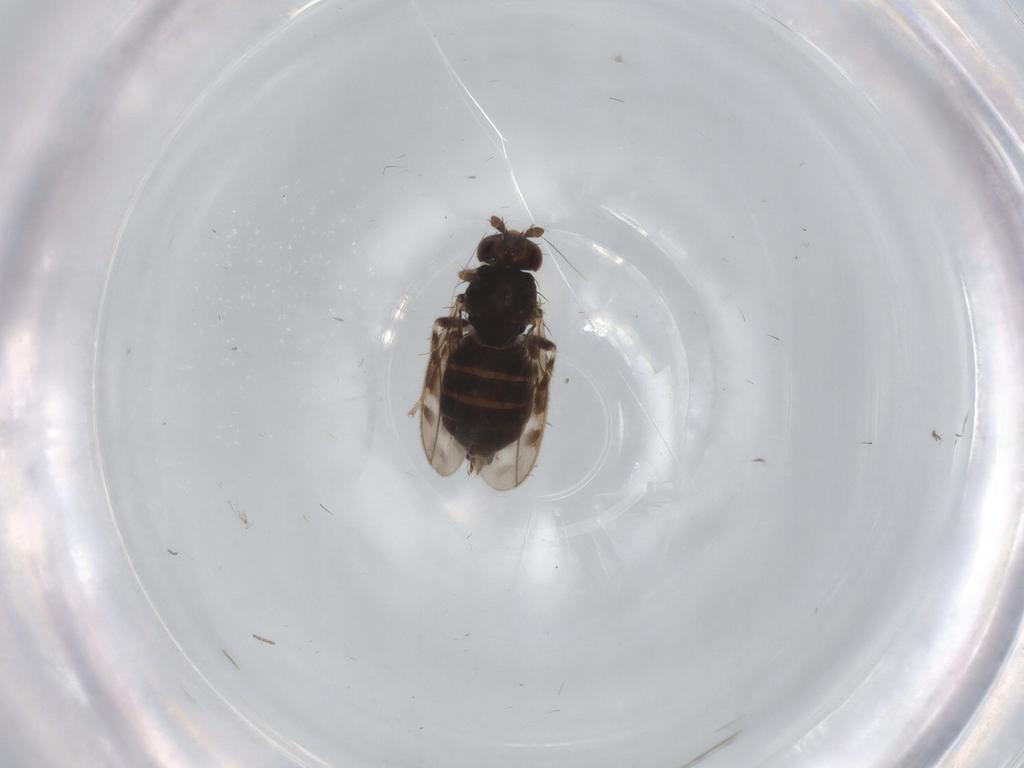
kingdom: Animalia
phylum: Arthropoda
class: Insecta
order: Diptera
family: Sphaeroceridae
